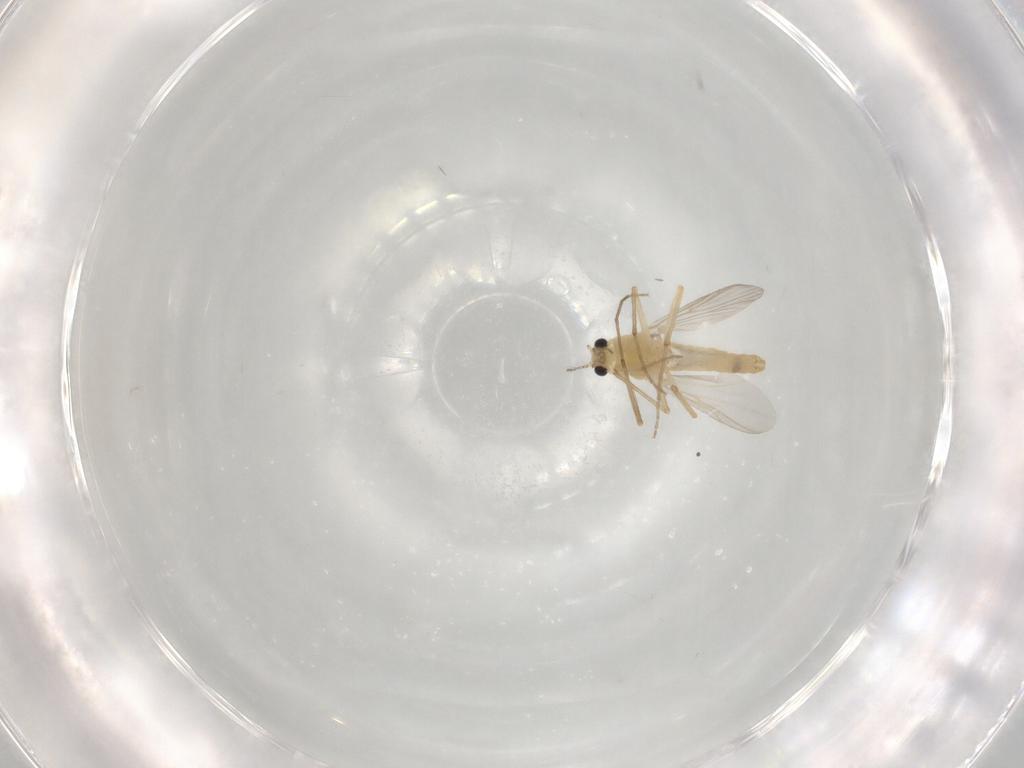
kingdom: Animalia
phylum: Arthropoda
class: Insecta
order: Diptera
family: Chironomidae
